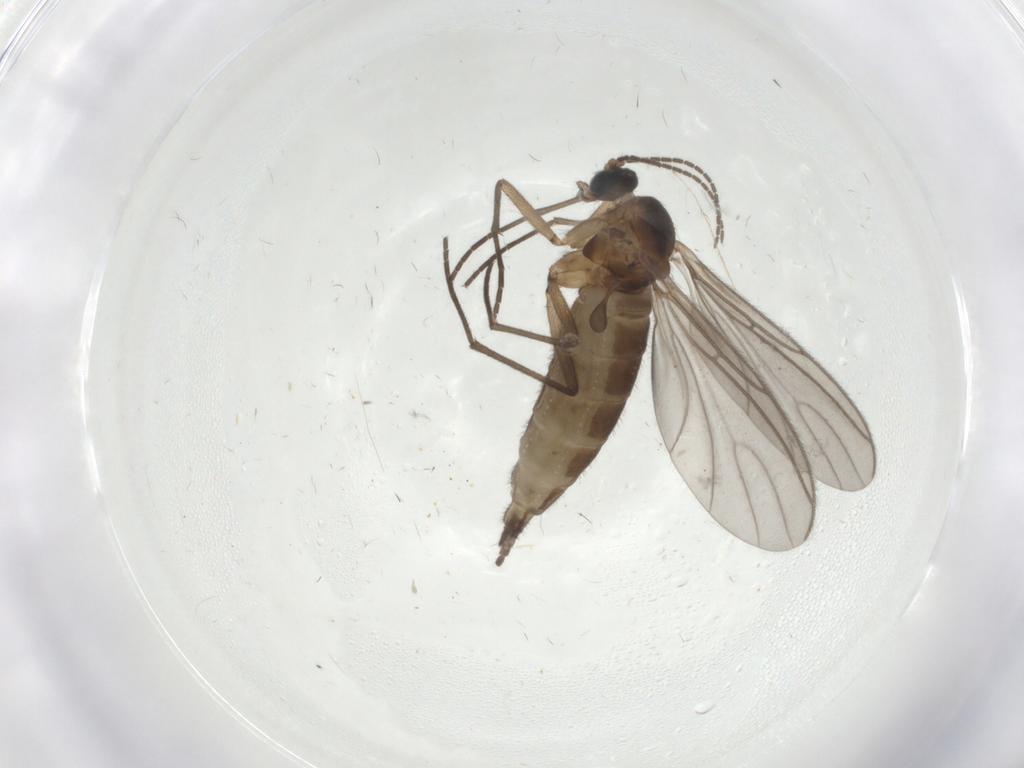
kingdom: Animalia
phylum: Arthropoda
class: Insecta
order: Diptera
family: Cecidomyiidae
